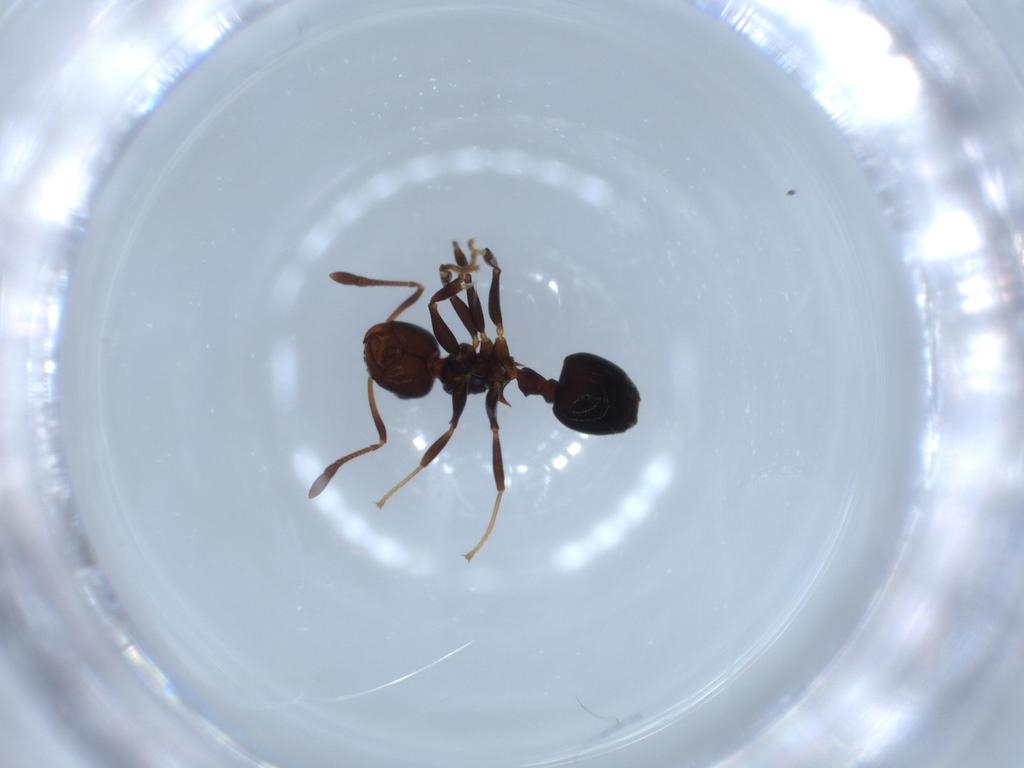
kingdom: Animalia
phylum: Arthropoda
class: Insecta
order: Hymenoptera
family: Formicidae
